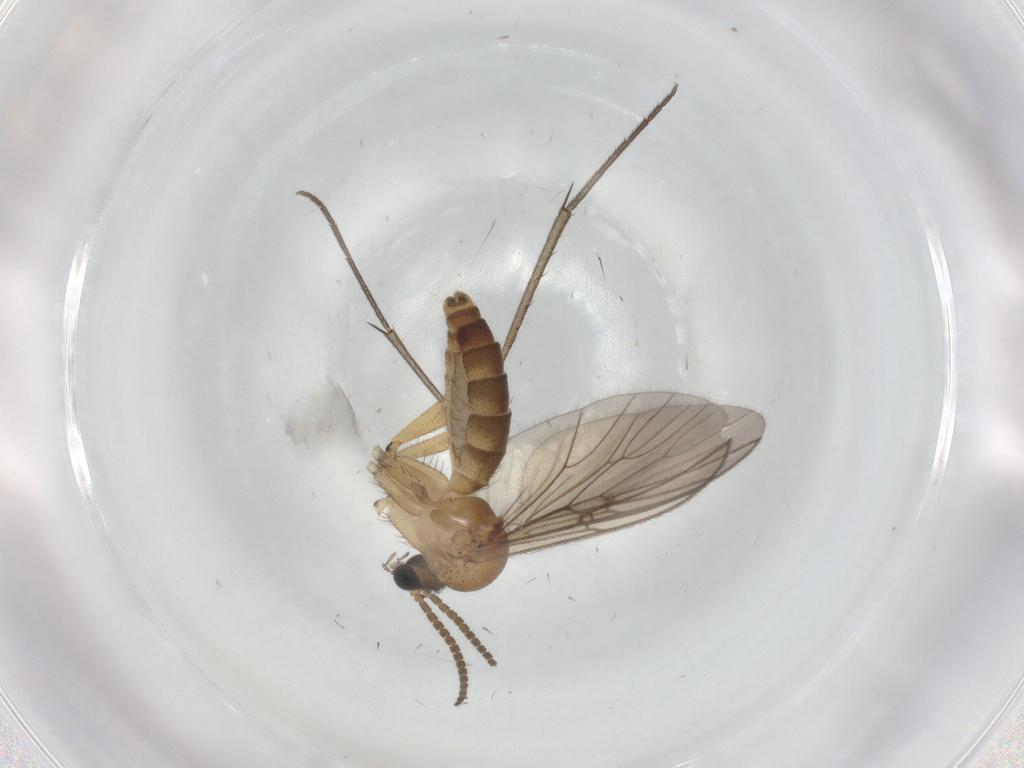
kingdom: Animalia
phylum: Arthropoda
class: Insecta
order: Diptera
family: Mycetophilidae
